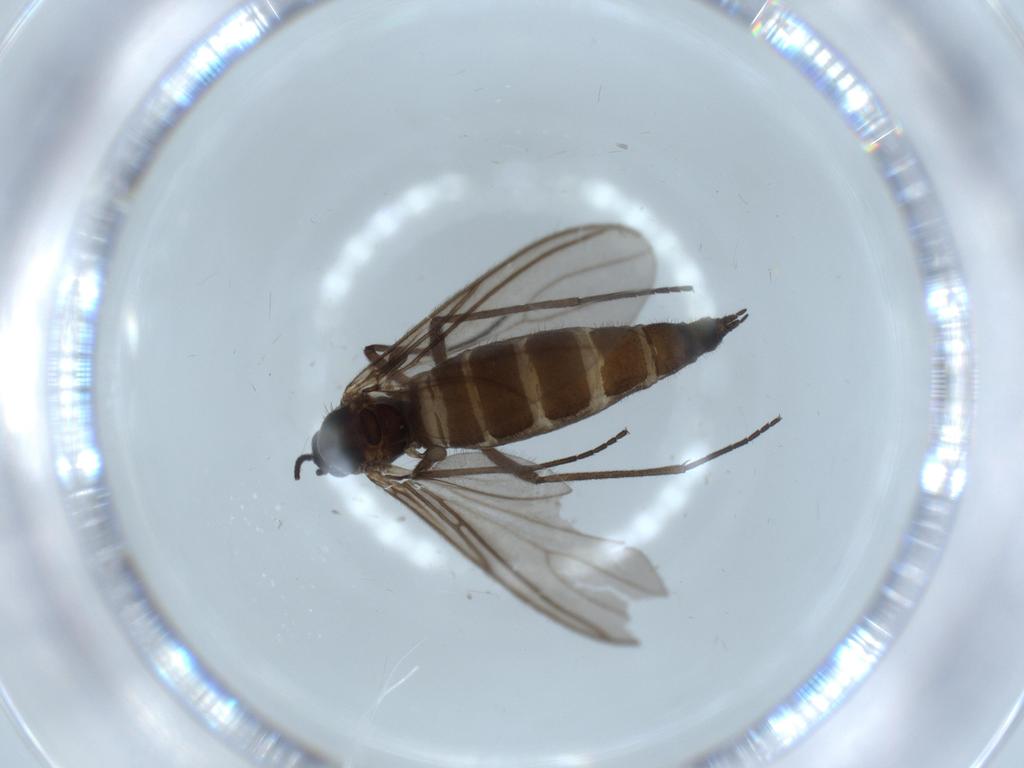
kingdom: Animalia
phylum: Arthropoda
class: Insecta
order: Diptera
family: Sciaridae
